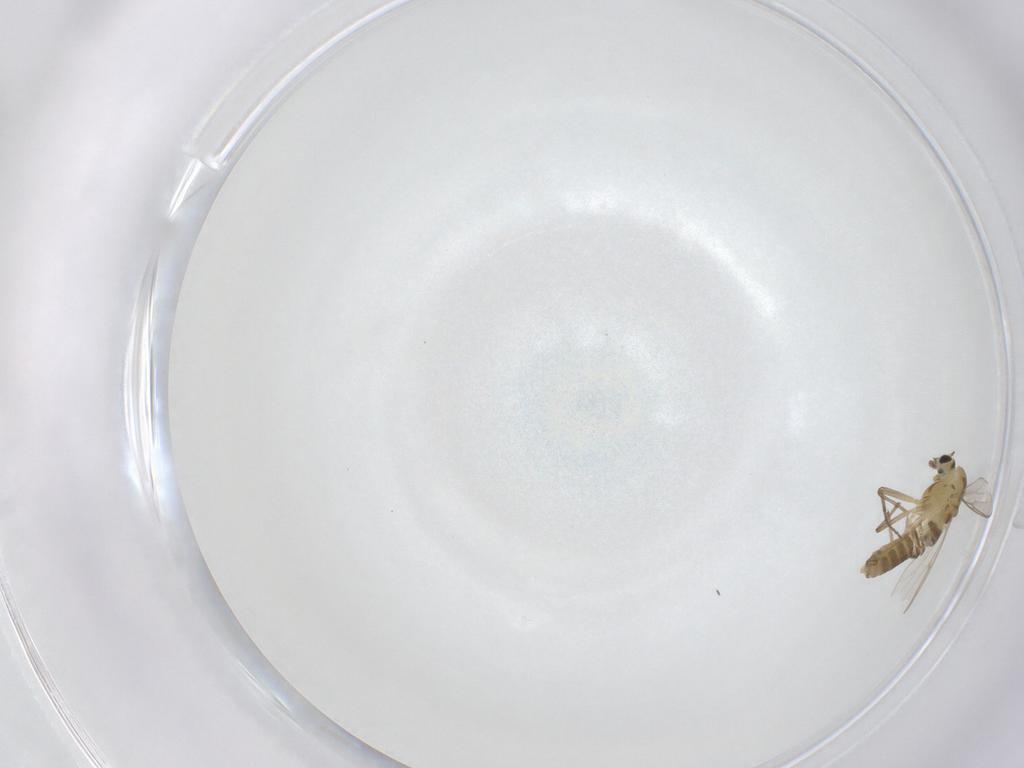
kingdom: Animalia
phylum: Arthropoda
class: Insecta
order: Diptera
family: Chironomidae
